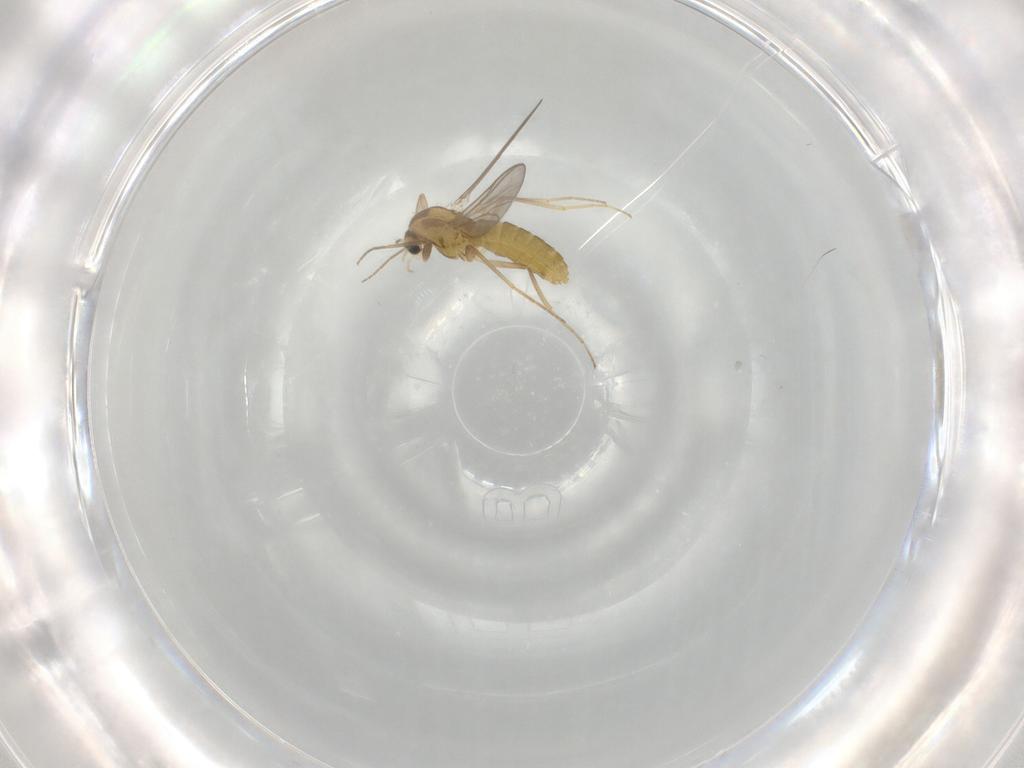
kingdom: Animalia
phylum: Arthropoda
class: Insecta
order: Diptera
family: Chironomidae
